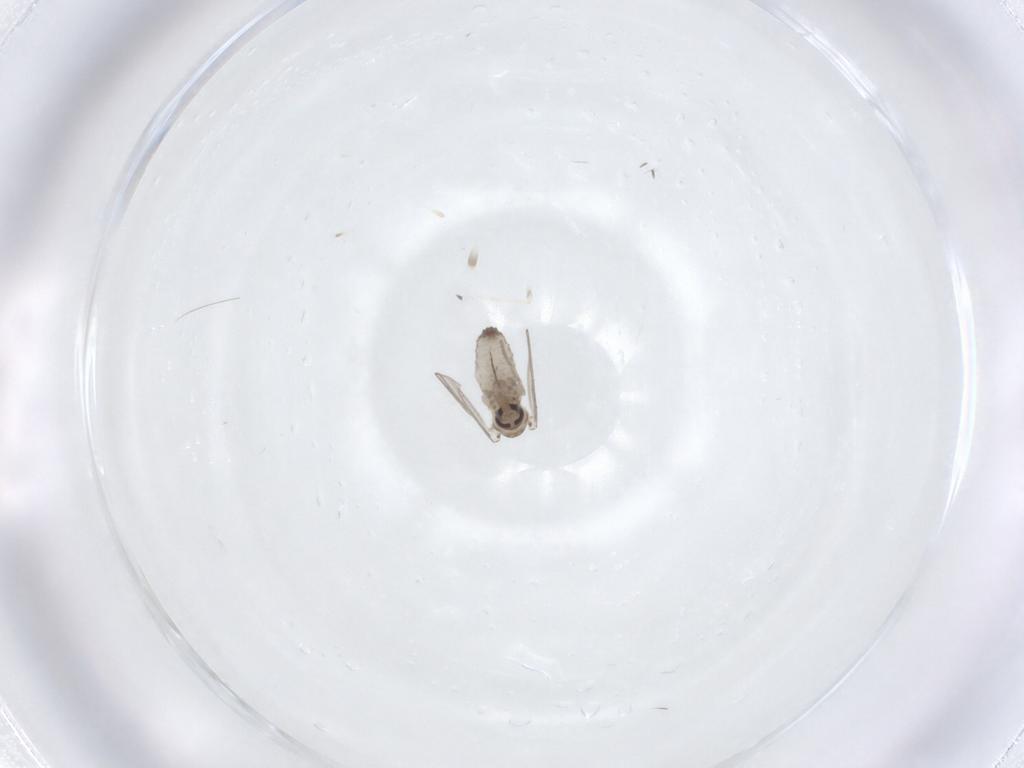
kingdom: Animalia
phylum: Arthropoda
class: Insecta
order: Diptera
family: Psychodidae
